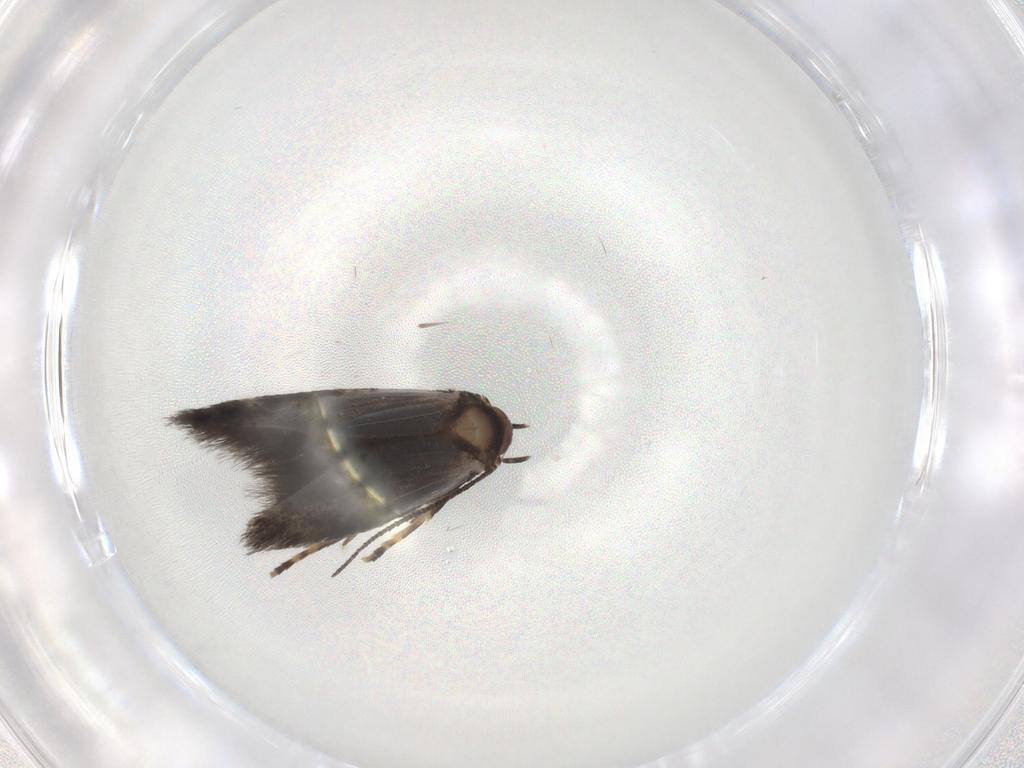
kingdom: Animalia
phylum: Arthropoda
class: Insecta
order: Lepidoptera
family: Elachistidae
